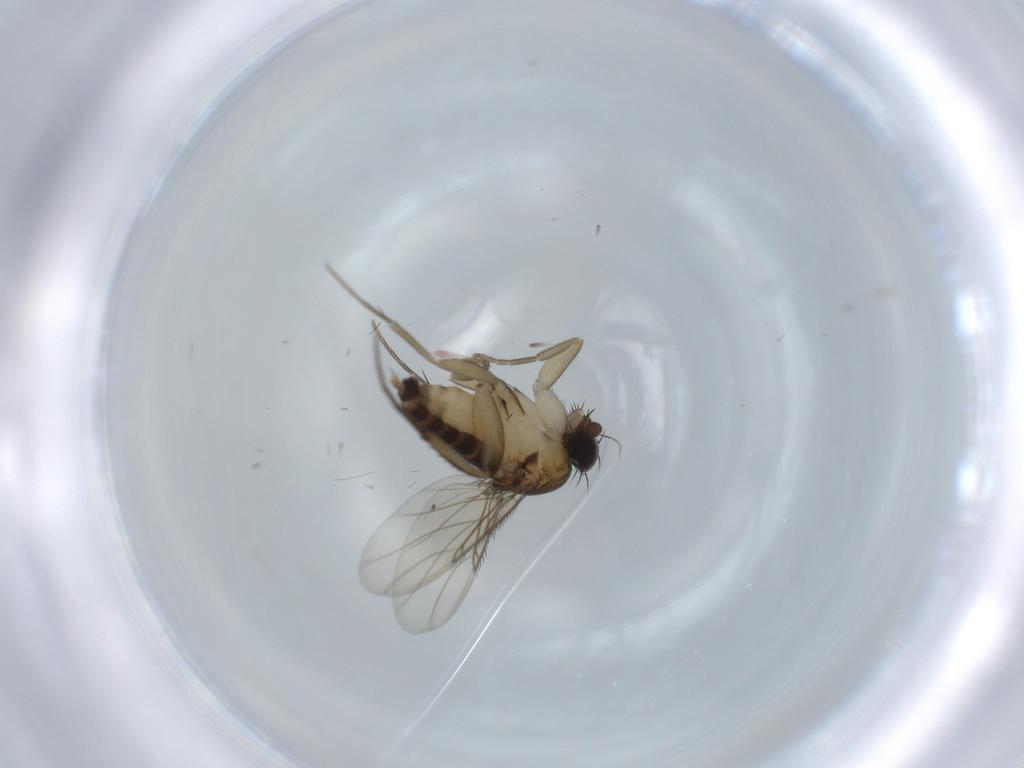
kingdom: Animalia
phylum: Arthropoda
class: Insecta
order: Diptera
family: Phoridae
